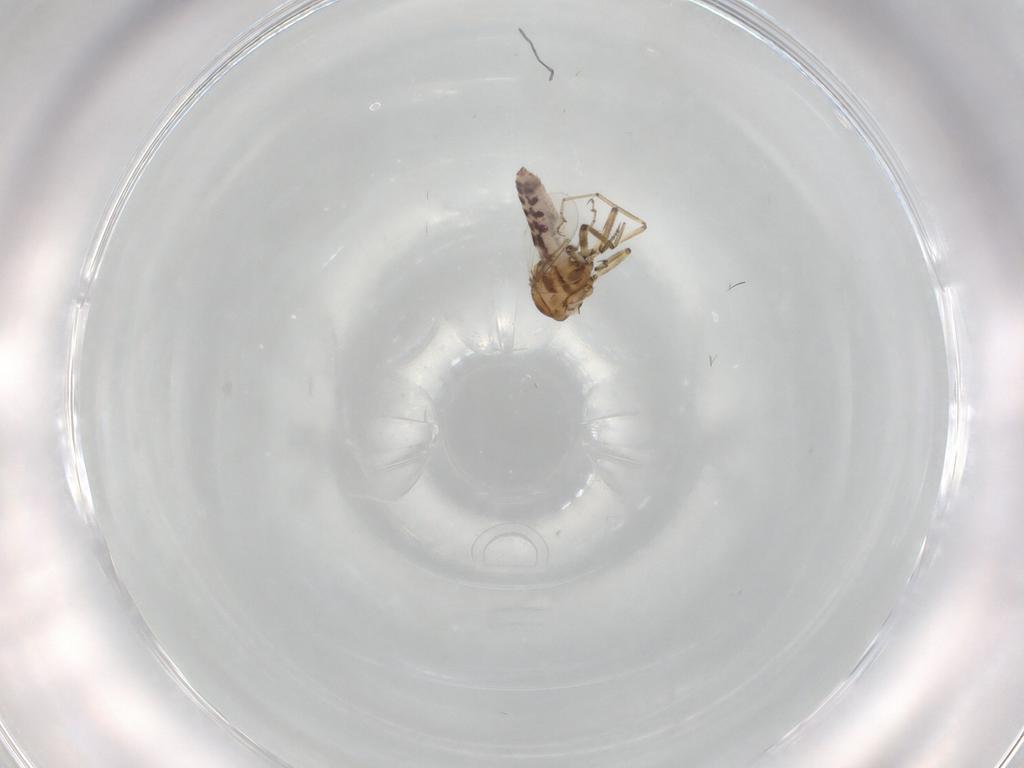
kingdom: Animalia
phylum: Arthropoda
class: Insecta
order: Diptera
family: Ceratopogonidae
